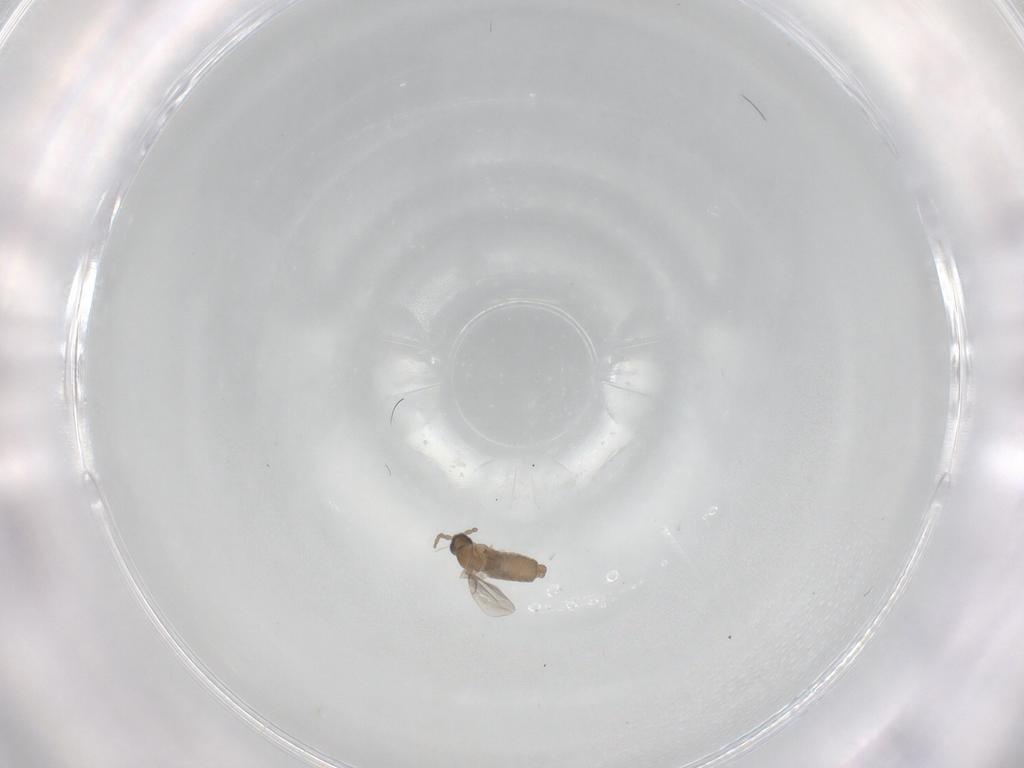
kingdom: Animalia
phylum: Arthropoda
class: Insecta
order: Diptera
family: Cecidomyiidae
